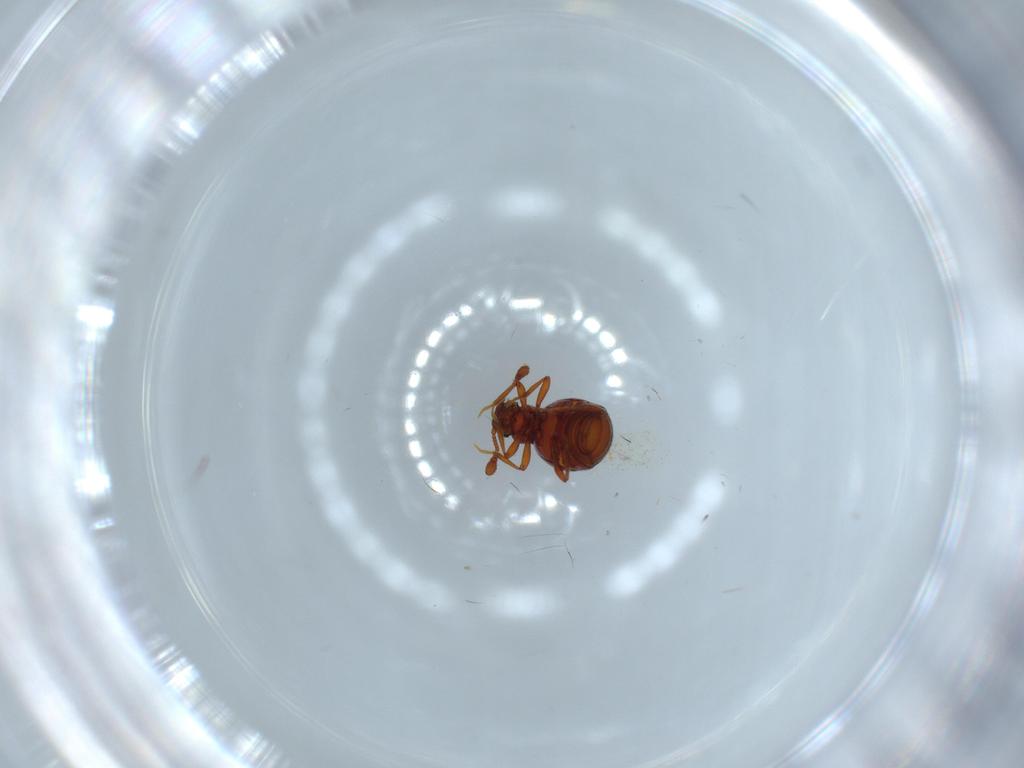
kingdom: Animalia
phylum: Arthropoda
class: Insecta
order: Coleoptera
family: Staphylinidae
